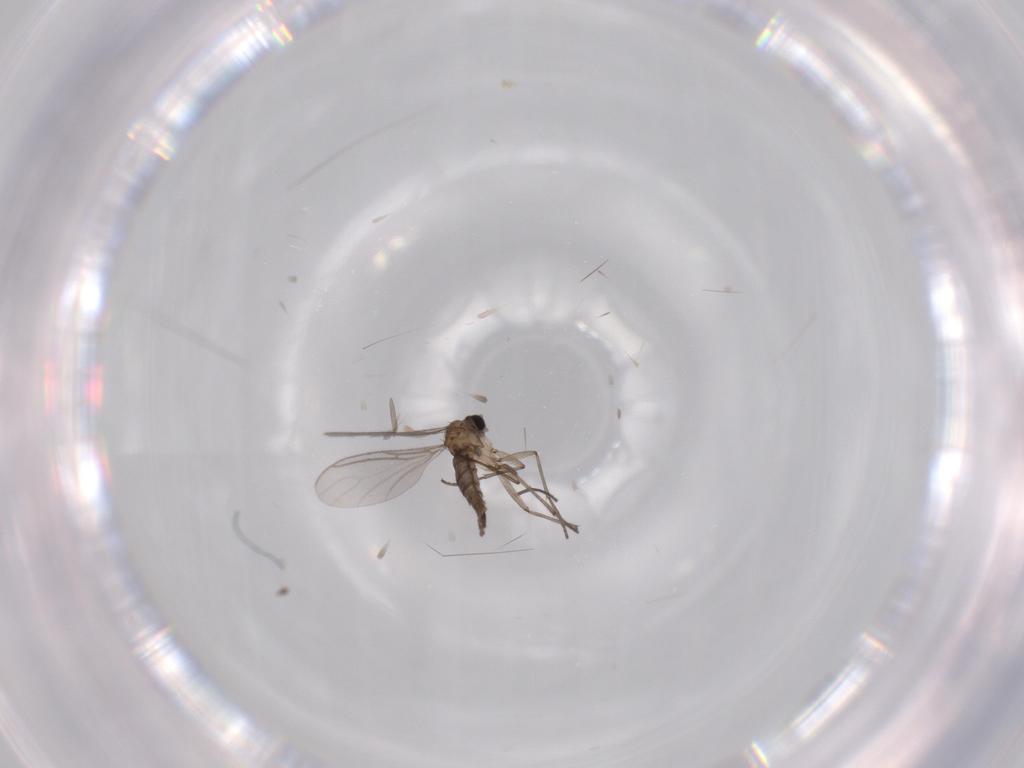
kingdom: Animalia
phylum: Arthropoda
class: Insecta
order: Diptera
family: Sciaridae
